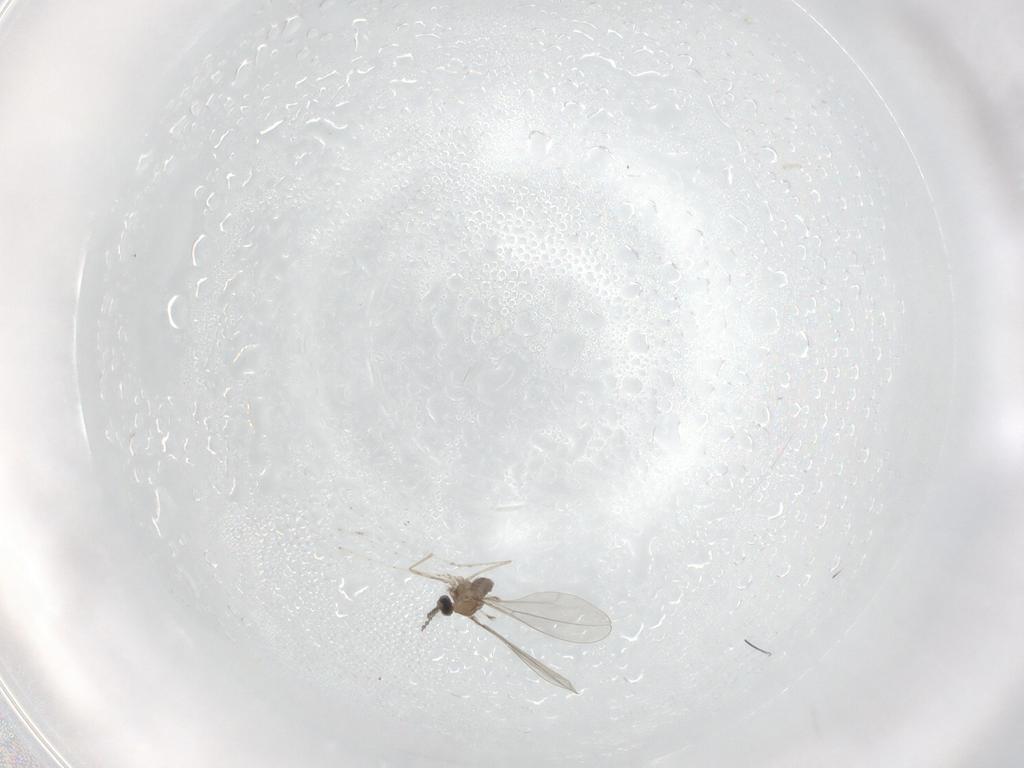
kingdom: Animalia
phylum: Arthropoda
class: Insecta
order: Diptera
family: Cecidomyiidae
